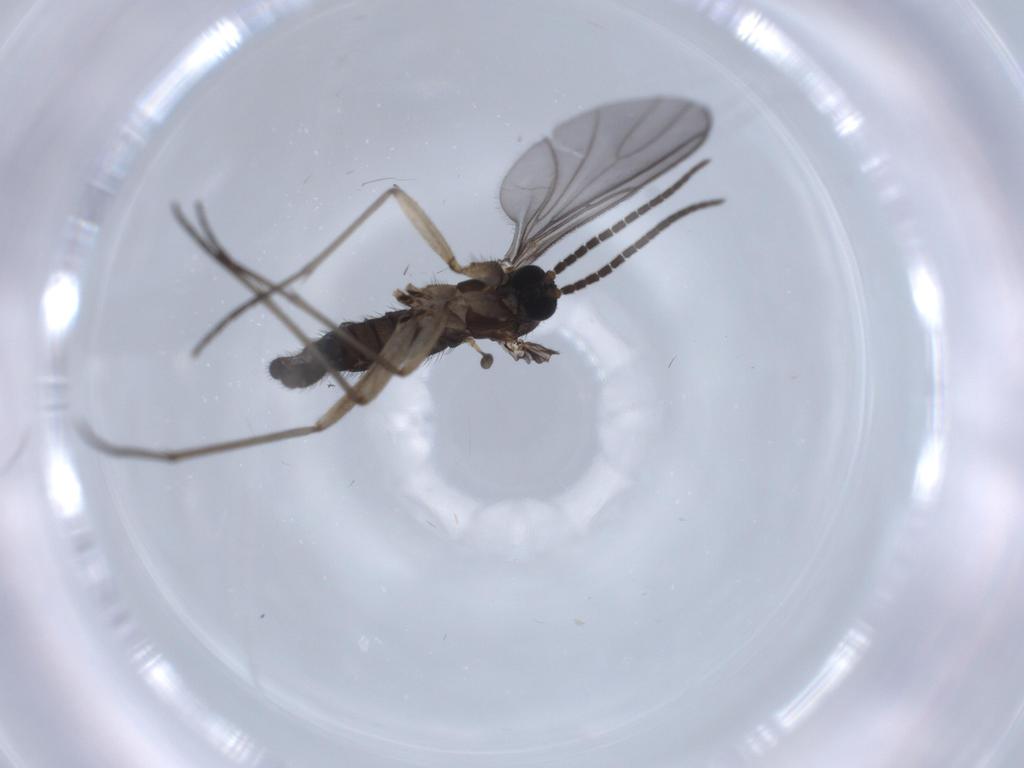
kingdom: Animalia
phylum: Arthropoda
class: Insecta
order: Diptera
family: Sciaridae
